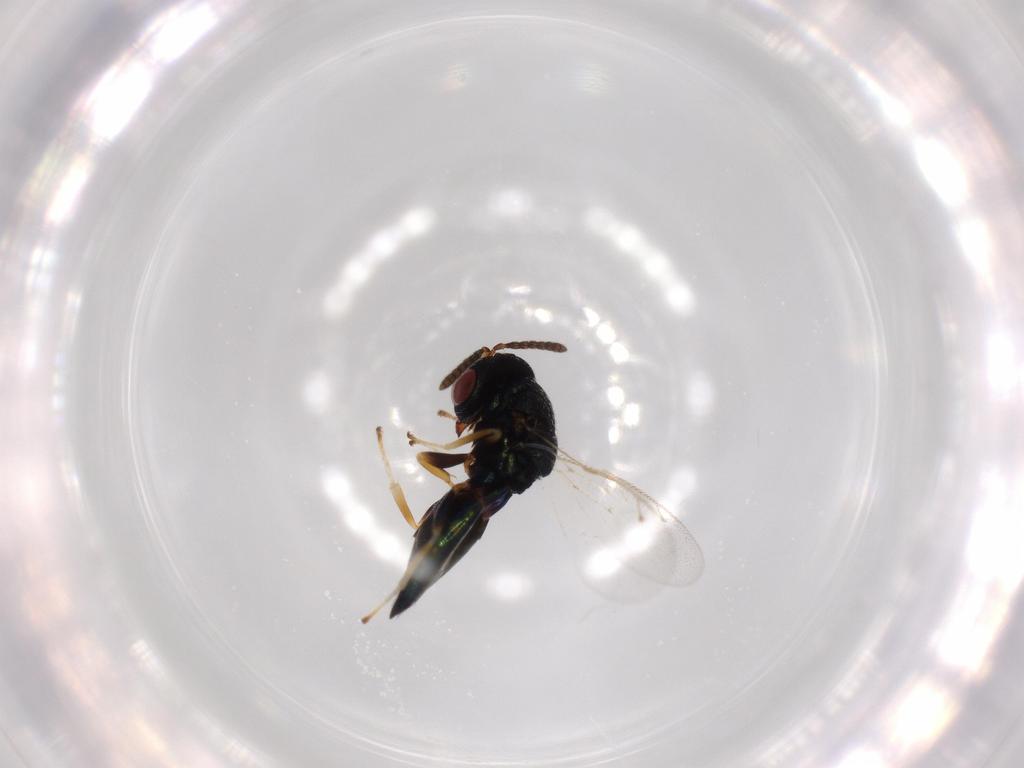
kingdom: Animalia
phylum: Arthropoda
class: Insecta
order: Hymenoptera
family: Pteromalidae
